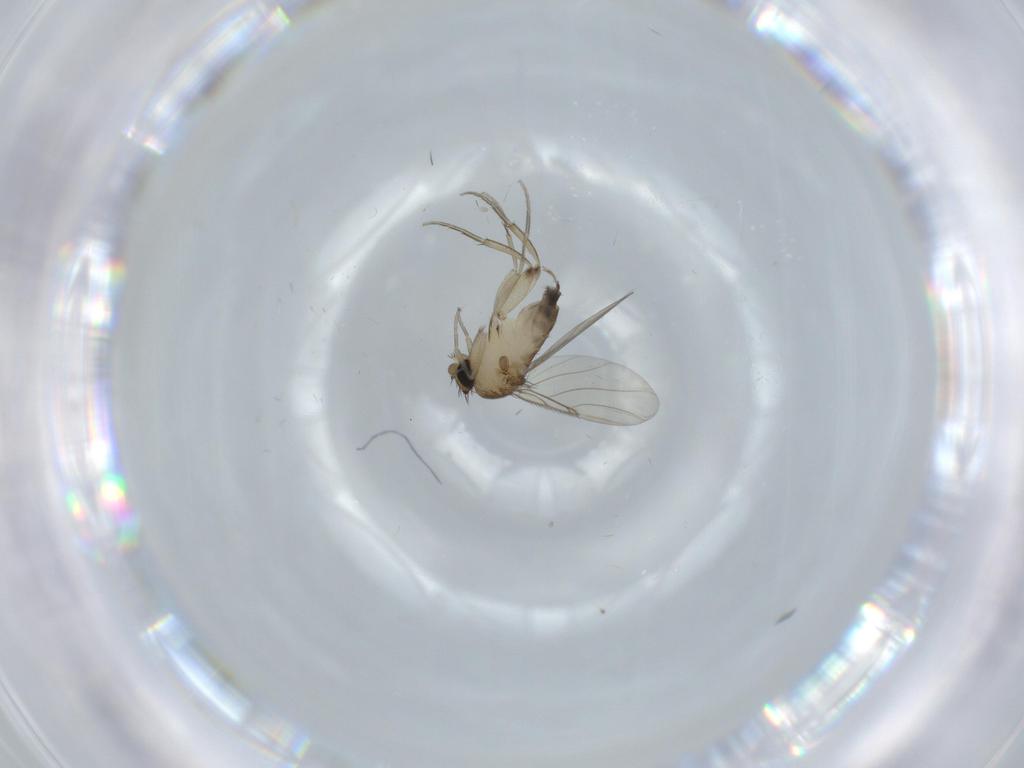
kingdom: Animalia
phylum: Arthropoda
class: Insecta
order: Diptera
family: Phoridae
